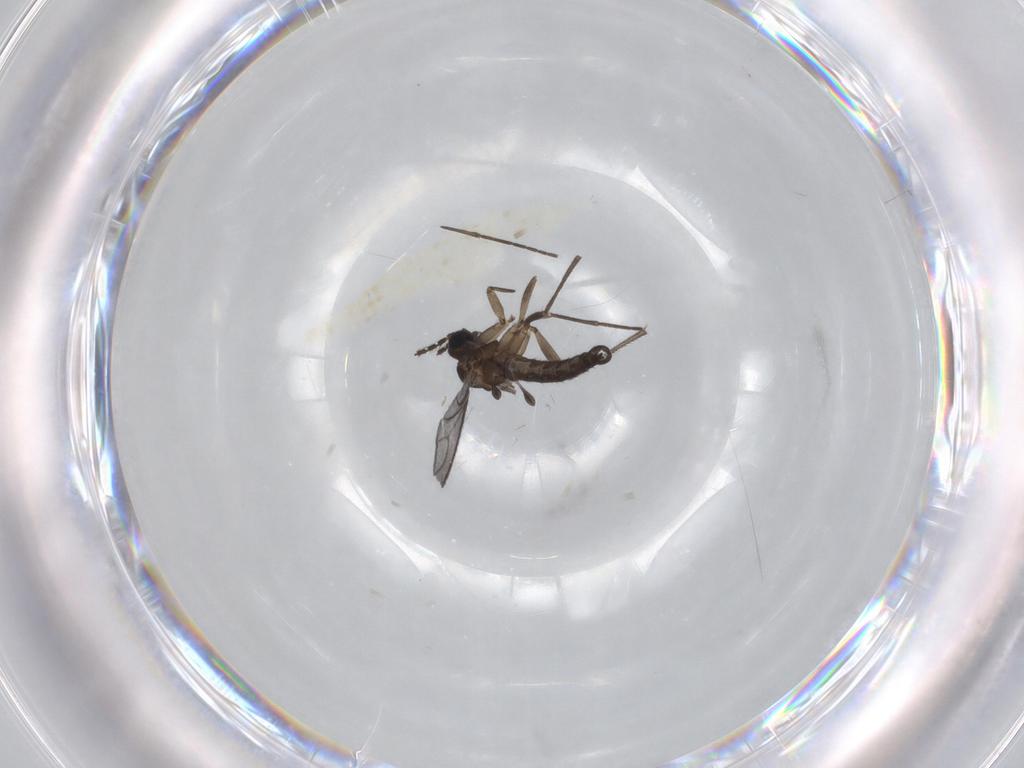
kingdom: Animalia
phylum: Arthropoda
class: Insecta
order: Diptera
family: Sciaridae
